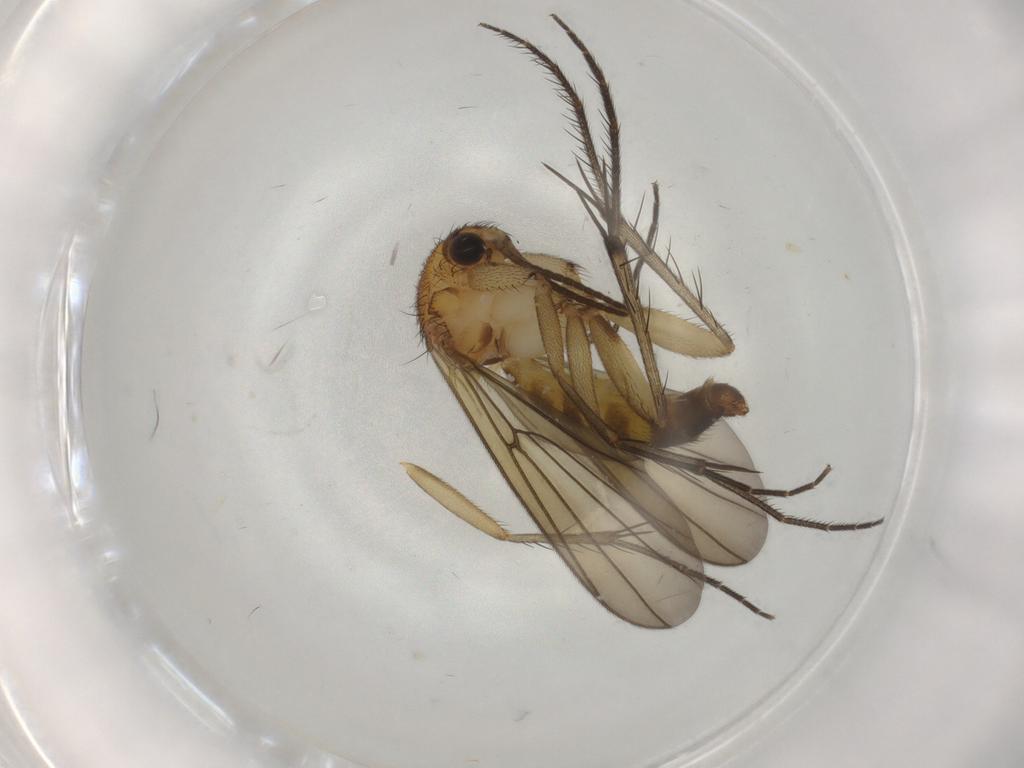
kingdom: Animalia
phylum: Arthropoda
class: Insecta
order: Diptera
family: Mycetophilidae
